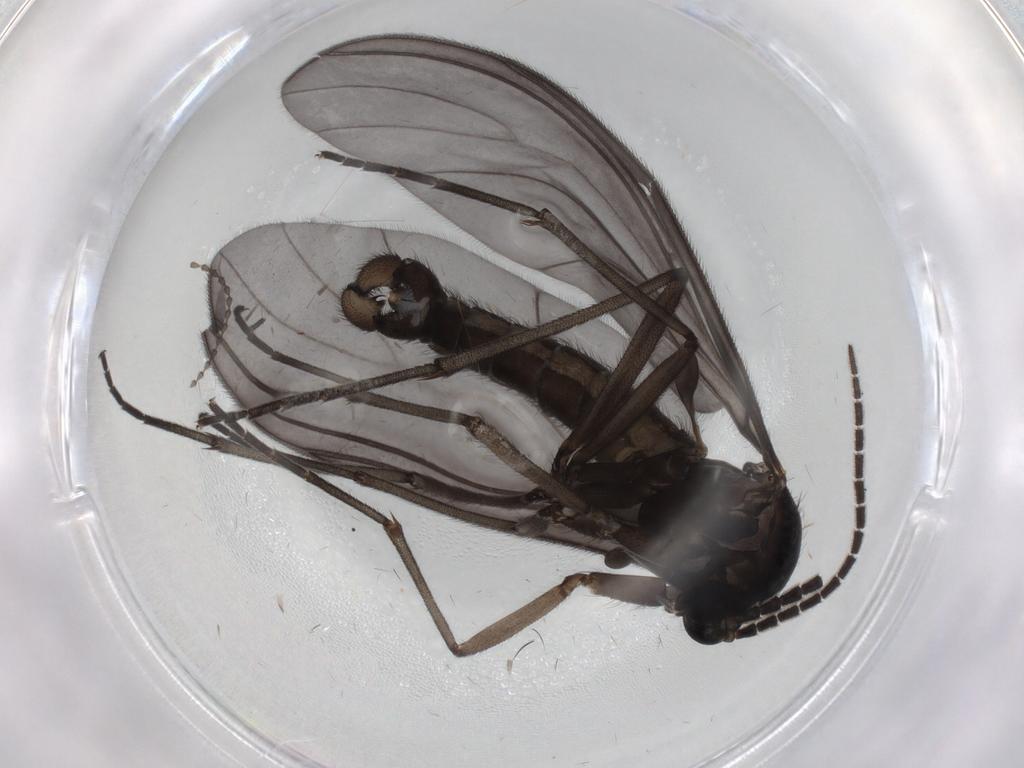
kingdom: Animalia
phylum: Arthropoda
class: Insecta
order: Diptera
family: Sciaridae
